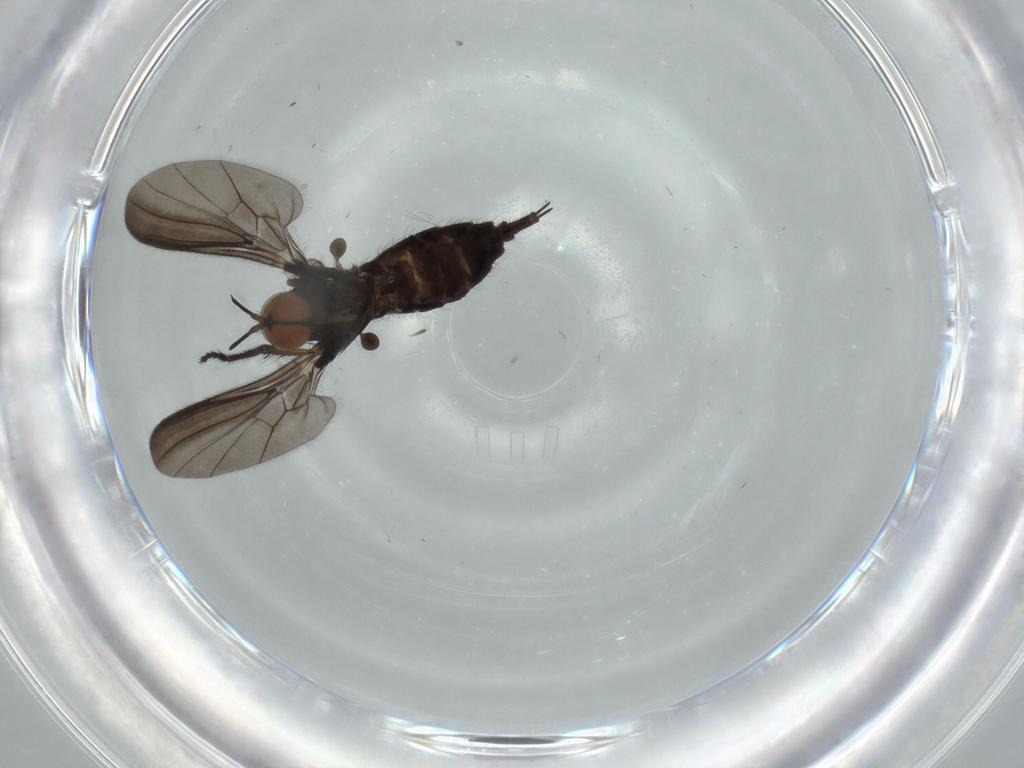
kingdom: Animalia
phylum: Arthropoda
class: Insecta
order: Diptera
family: Empididae
